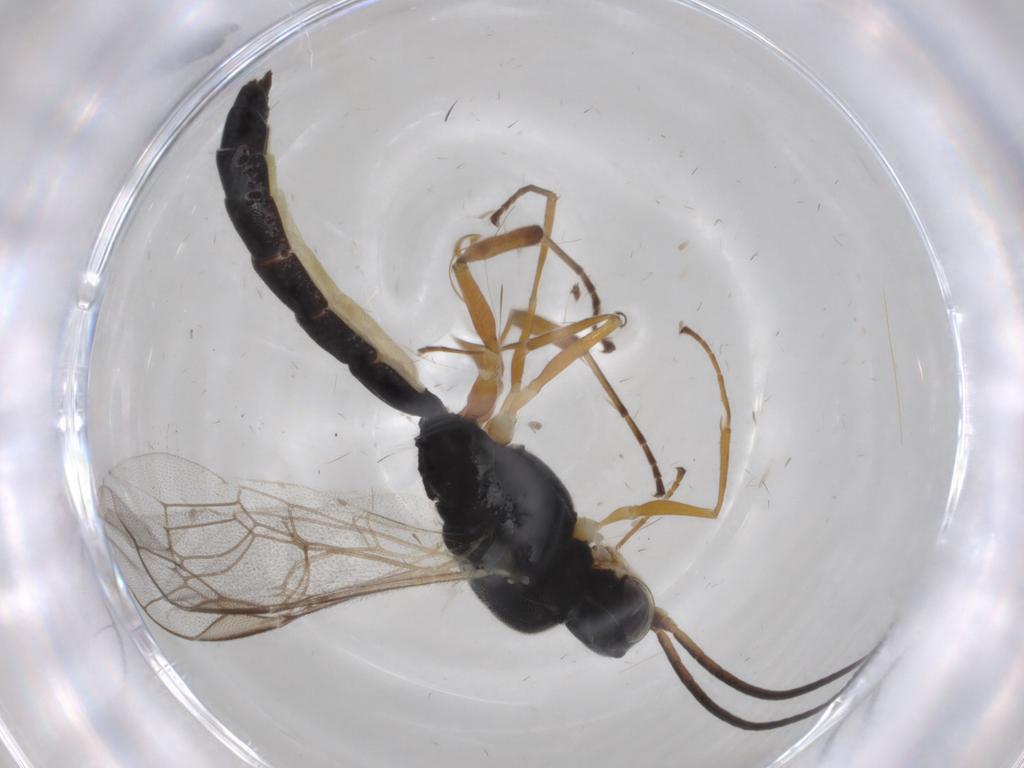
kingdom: Animalia
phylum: Arthropoda
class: Insecta
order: Hymenoptera
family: Ichneumonidae
